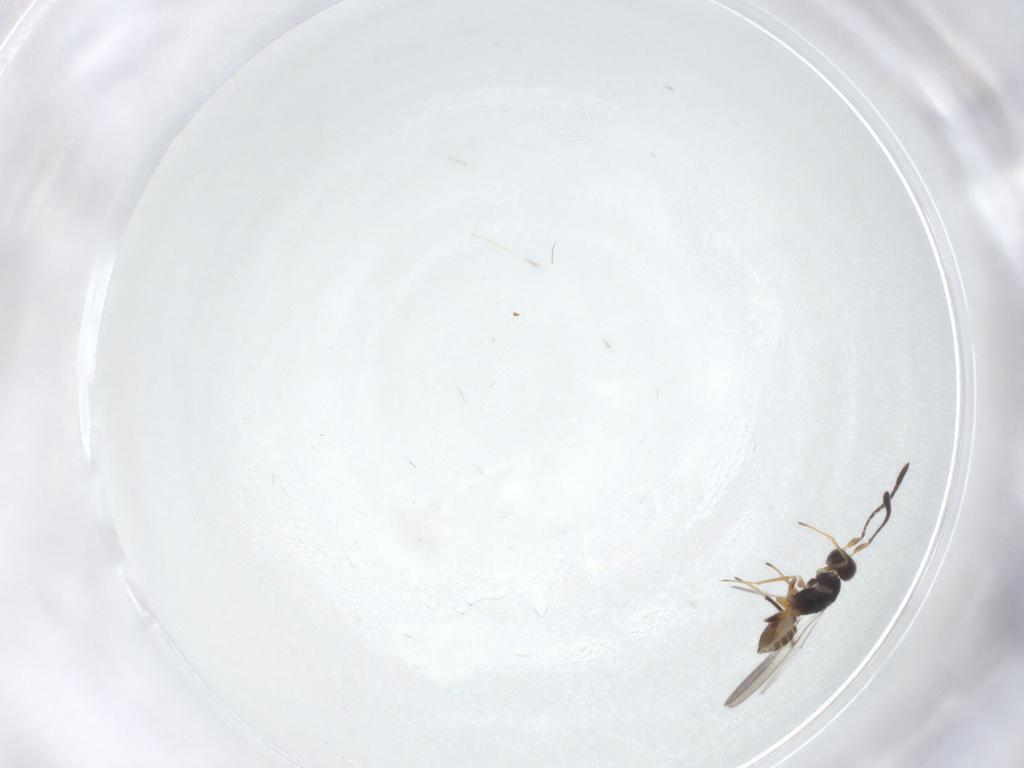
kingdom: Animalia
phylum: Arthropoda
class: Insecta
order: Hymenoptera
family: Mymaridae
